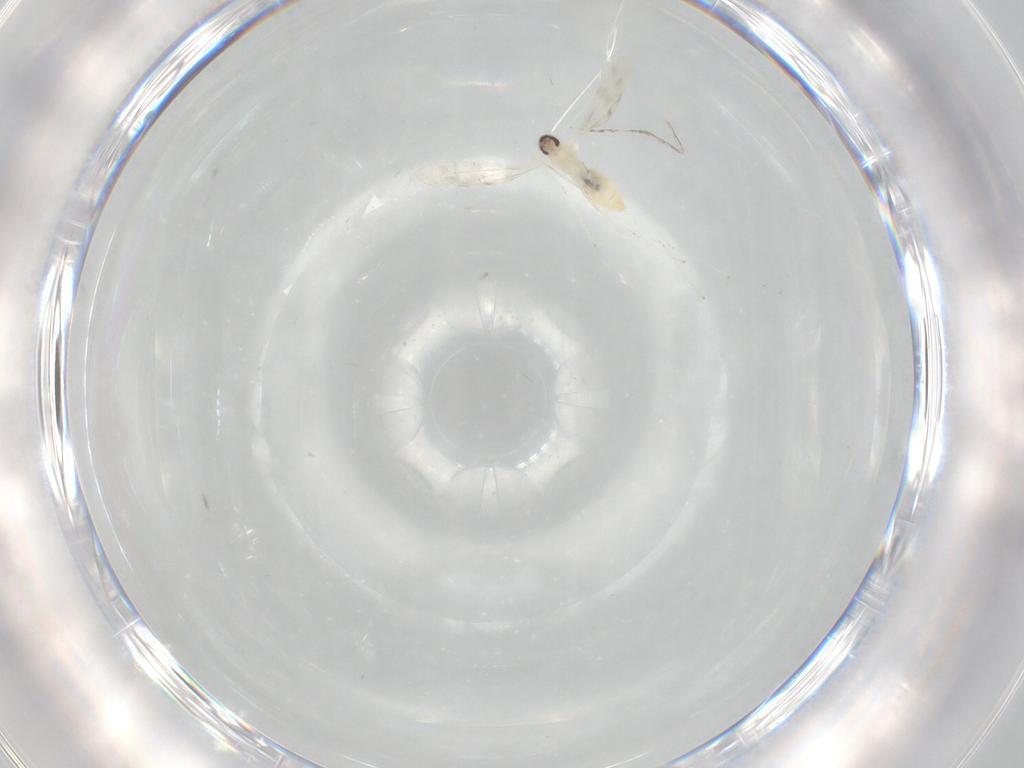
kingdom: Animalia
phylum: Arthropoda
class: Insecta
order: Diptera
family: Cecidomyiidae
